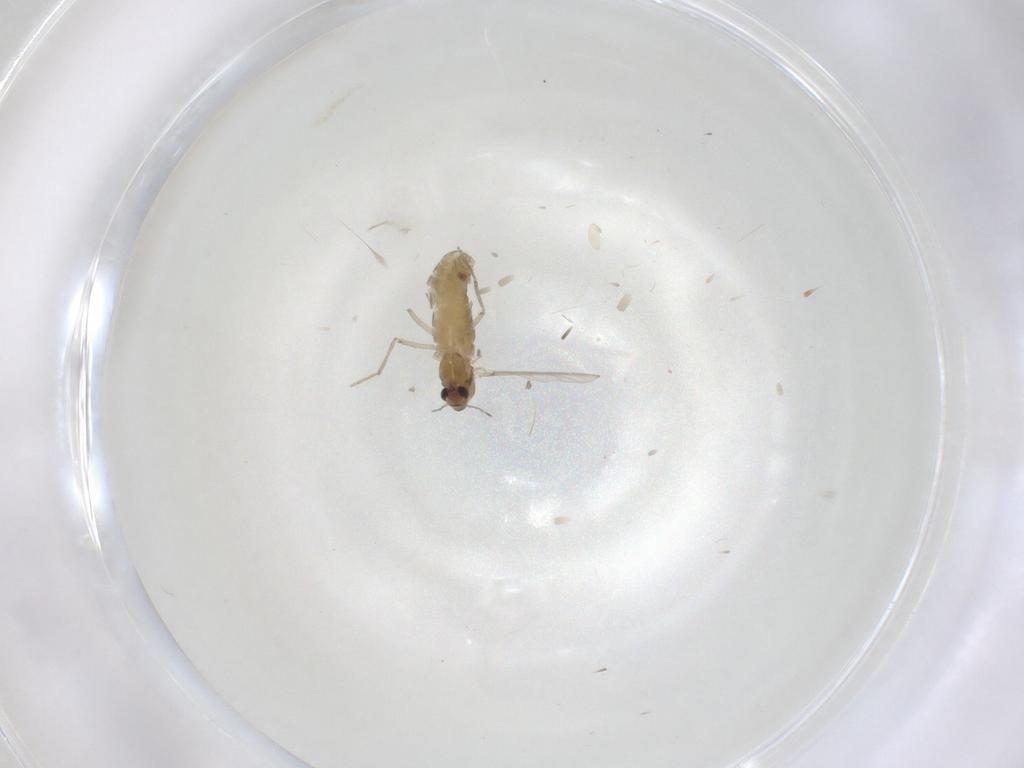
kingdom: Animalia
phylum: Arthropoda
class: Insecta
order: Diptera
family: Chironomidae
